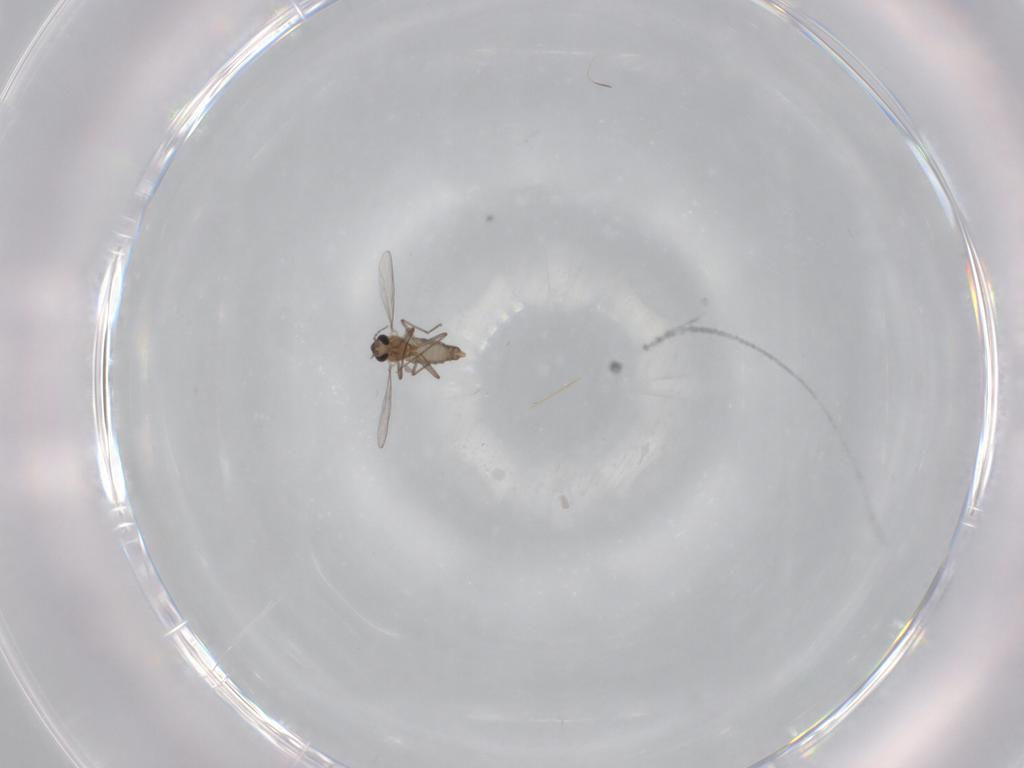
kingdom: Animalia
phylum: Arthropoda
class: Insecta
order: Diptera
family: Chironomidae
